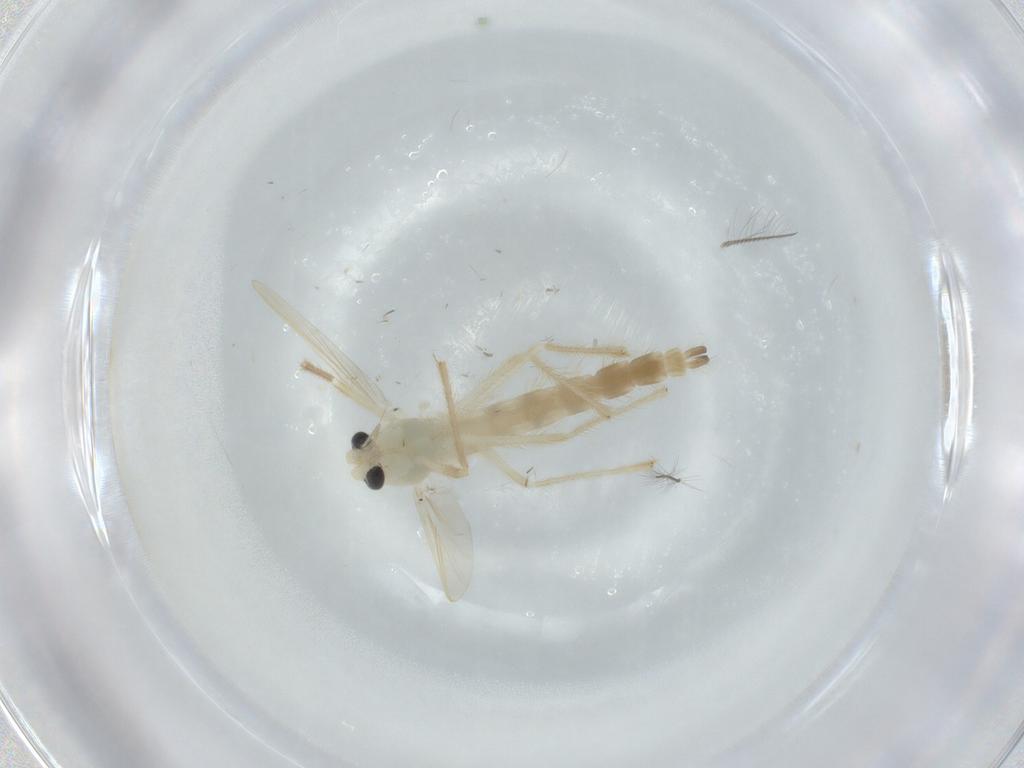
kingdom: Animalia
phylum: Arthropoda
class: Insecta
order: Diptera
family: Chironomidae
